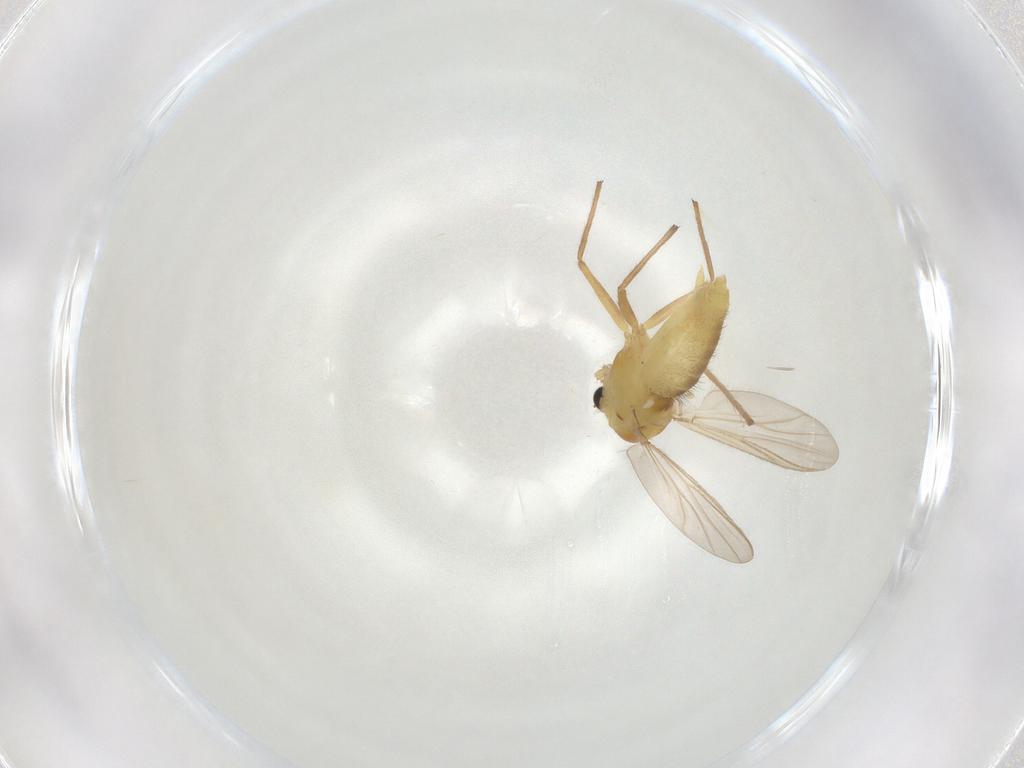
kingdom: Animalia
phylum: Arthropoda
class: Insecta
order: Diptera
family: Chironomidae
